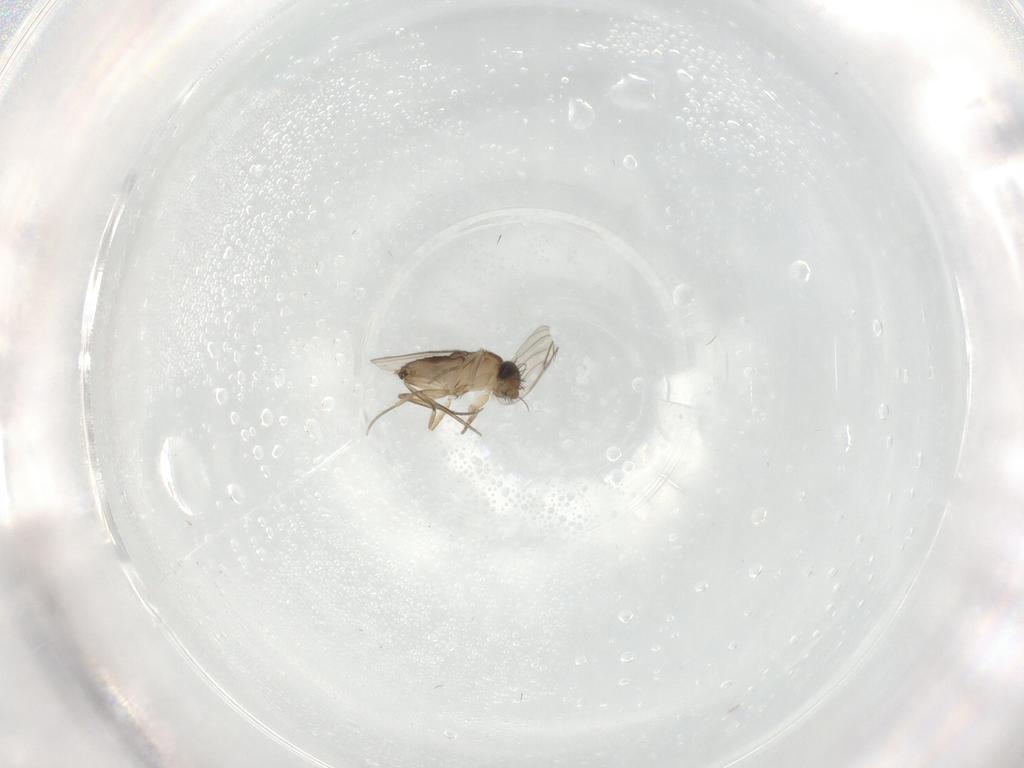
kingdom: Animalia
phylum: Arthropoda
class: Insecta
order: Diptera
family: Phoridae
